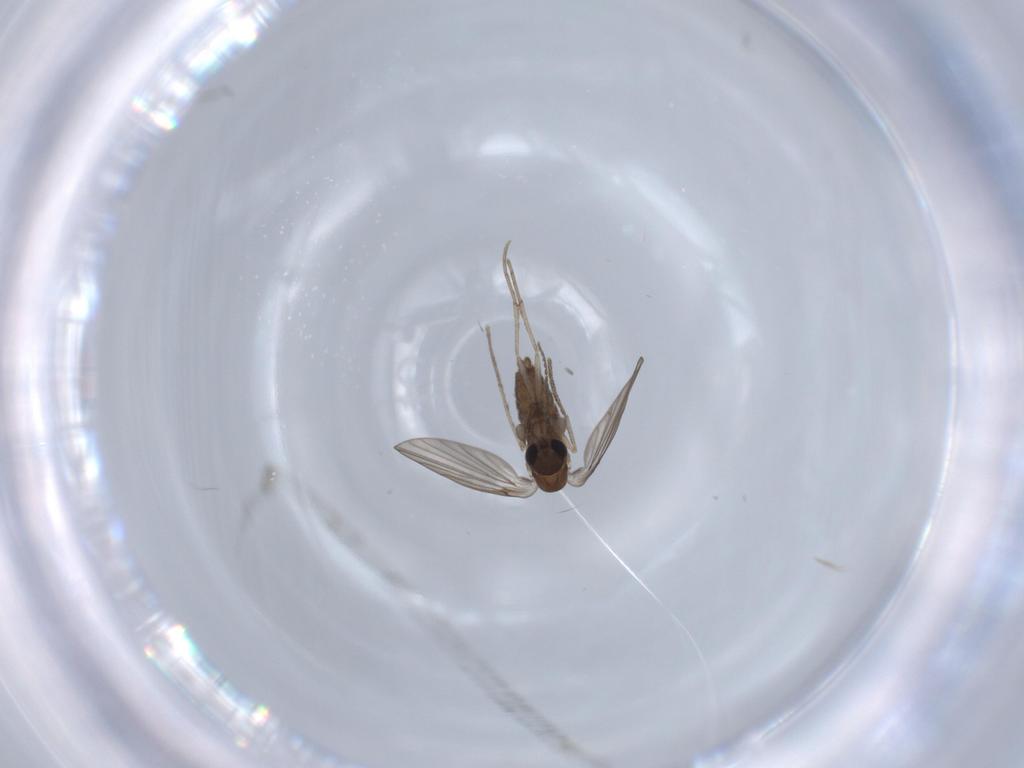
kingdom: Animalia
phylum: Arthropoda
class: Insecta
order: Diptera
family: Psychodidae
